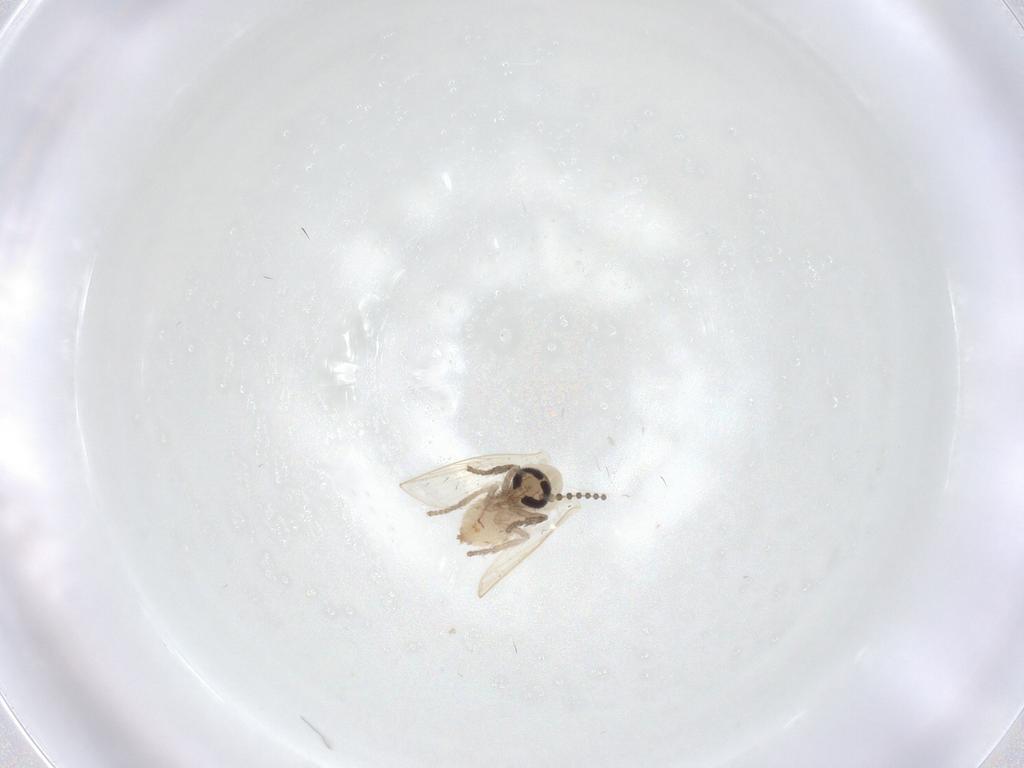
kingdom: Animalia
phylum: Arthropoda
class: Insecta
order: Diptera
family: Psychodidae
